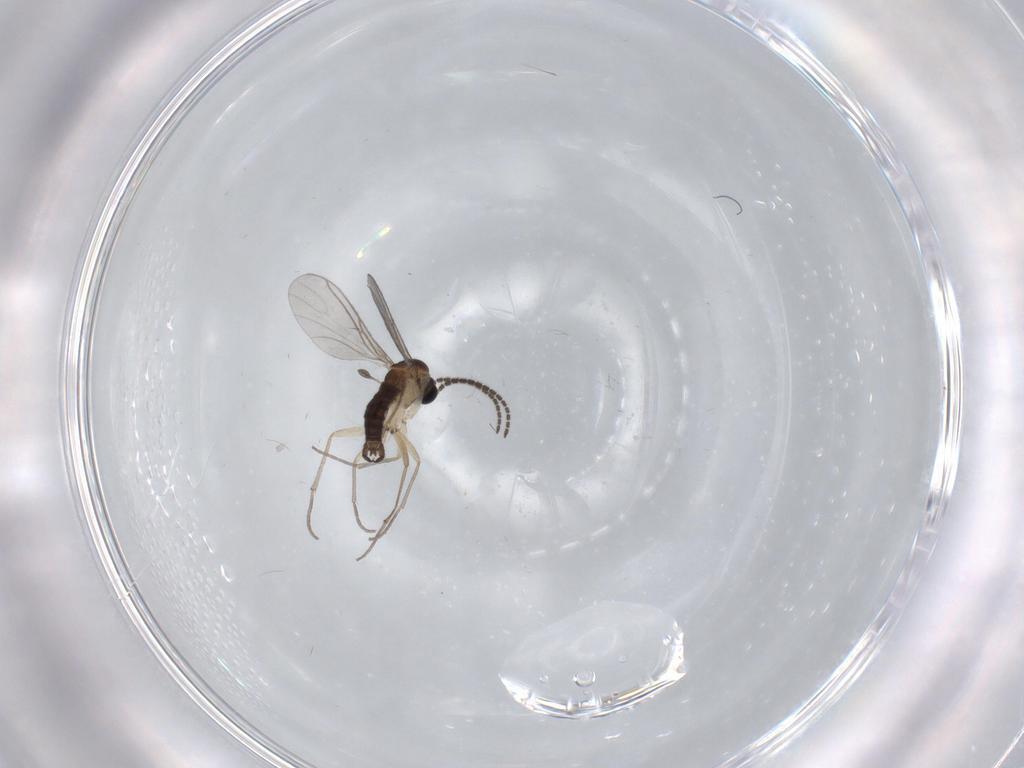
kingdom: Animalia
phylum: Arthropoda
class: Insecta
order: Diptera
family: Sciaridae
